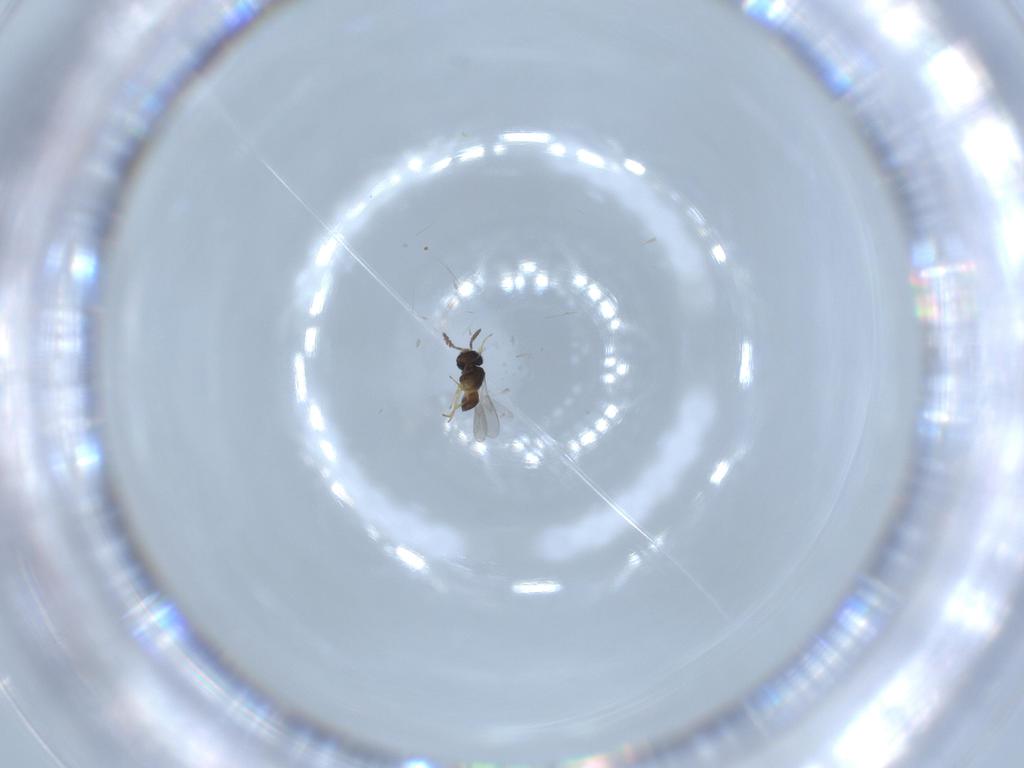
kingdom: Animalia
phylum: Arthropoda
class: Insecta
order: Hymenoptera
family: Scelionidae
